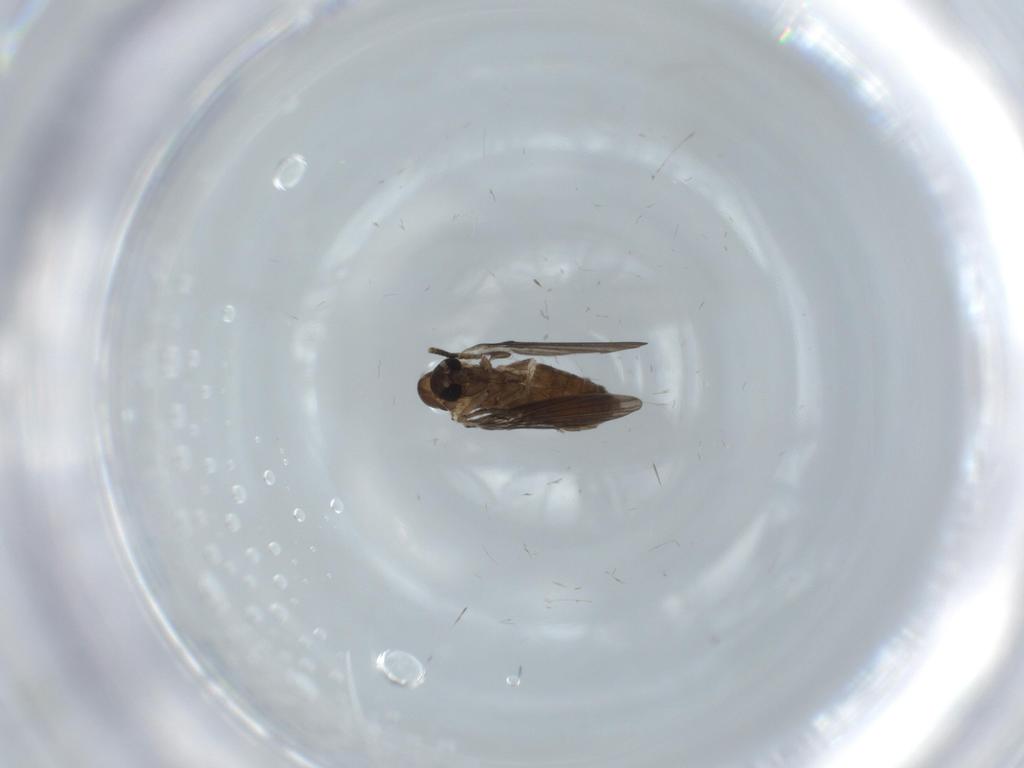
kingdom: Animalia
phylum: Arthropoda
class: Insecta
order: Diptera
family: Psychodidae
